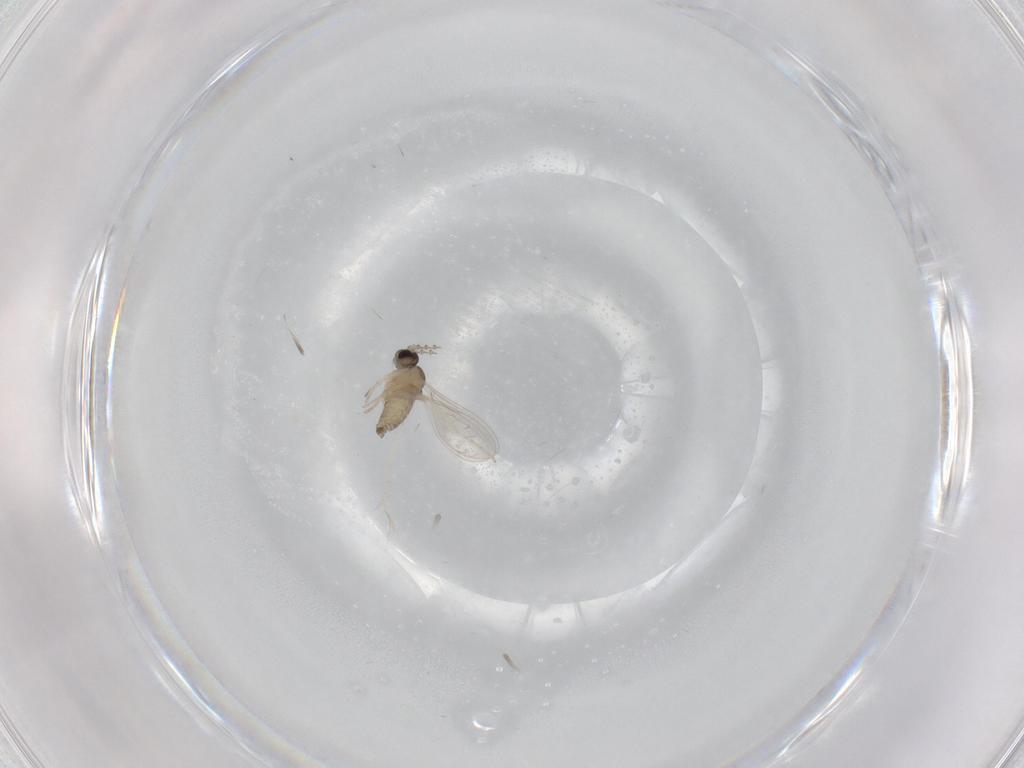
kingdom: Animalia
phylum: Arthropoda
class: Insecta
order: Diptera
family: Cecidomyiidae
